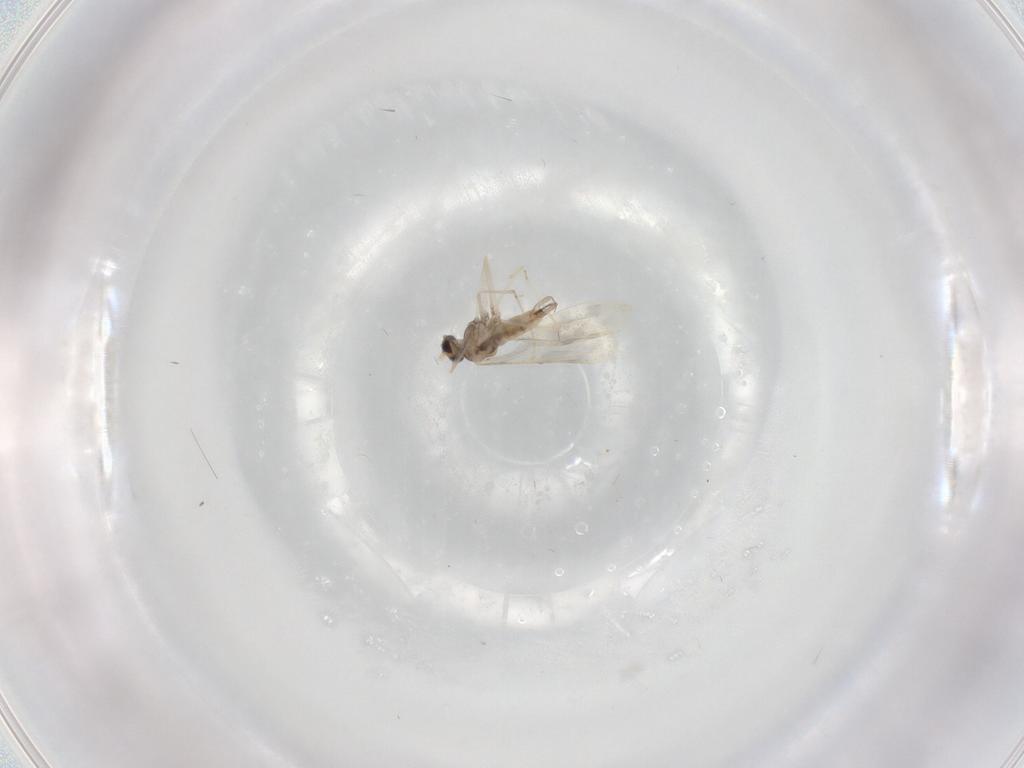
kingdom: Animalia
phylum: Arthropoda
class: Insecta
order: Diptera
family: Cecidomyiidae
